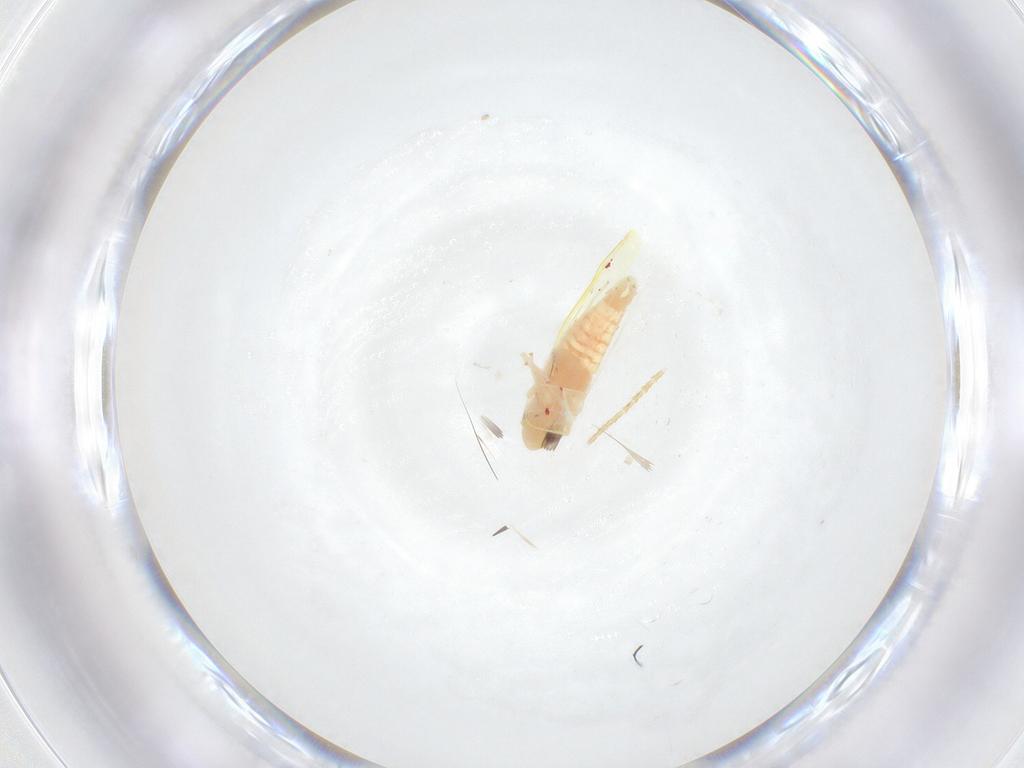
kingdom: Animalia
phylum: Arthropoda
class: Insecta
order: Hemiptera
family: Cicadellidae
